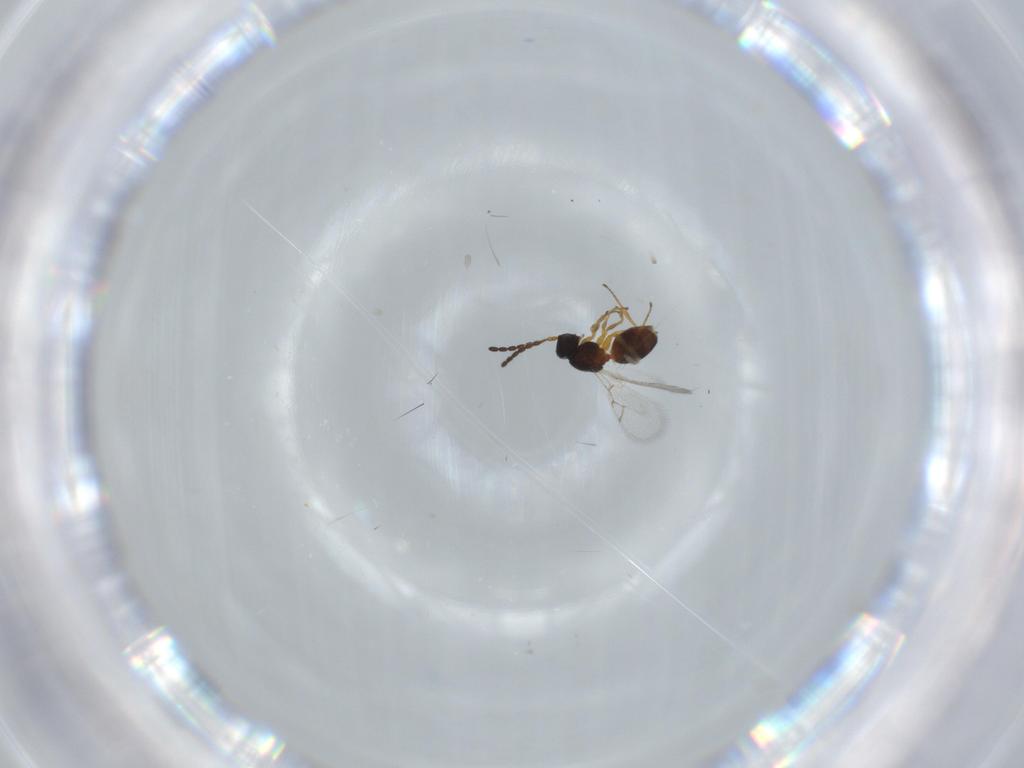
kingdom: Animalia
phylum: Arthropoda
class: Insecta
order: Hymenoptera
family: Figitidae
